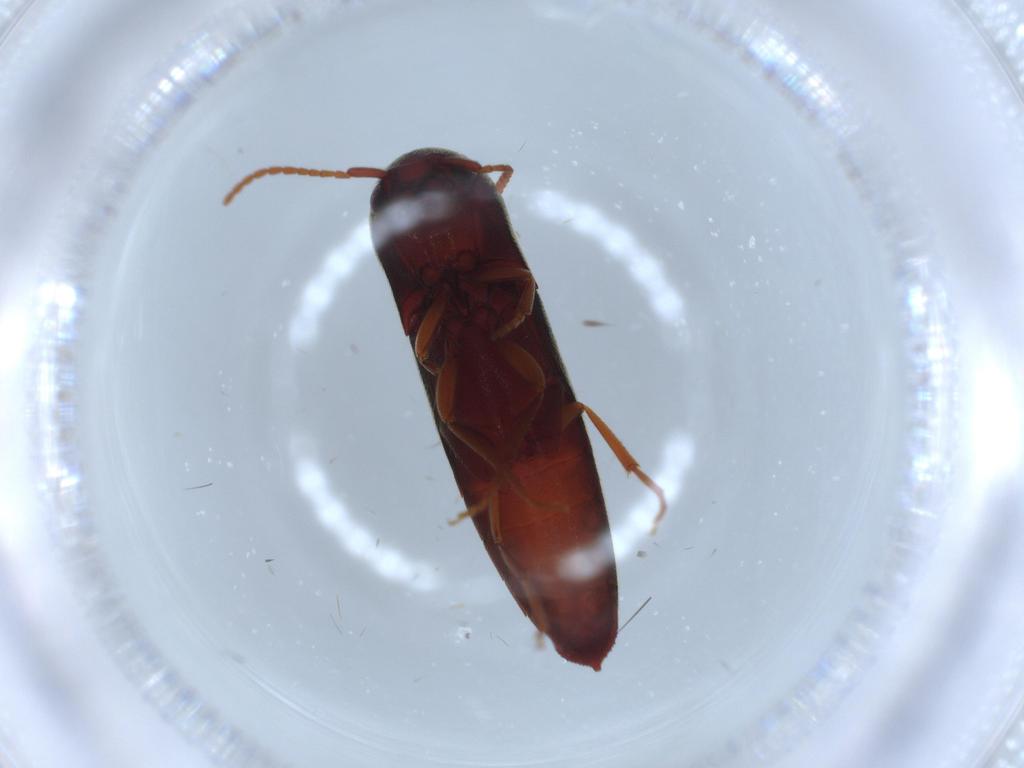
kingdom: Animalia
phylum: Arthropoda
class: Insecta
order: Coleoptera
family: Eucnemidae
